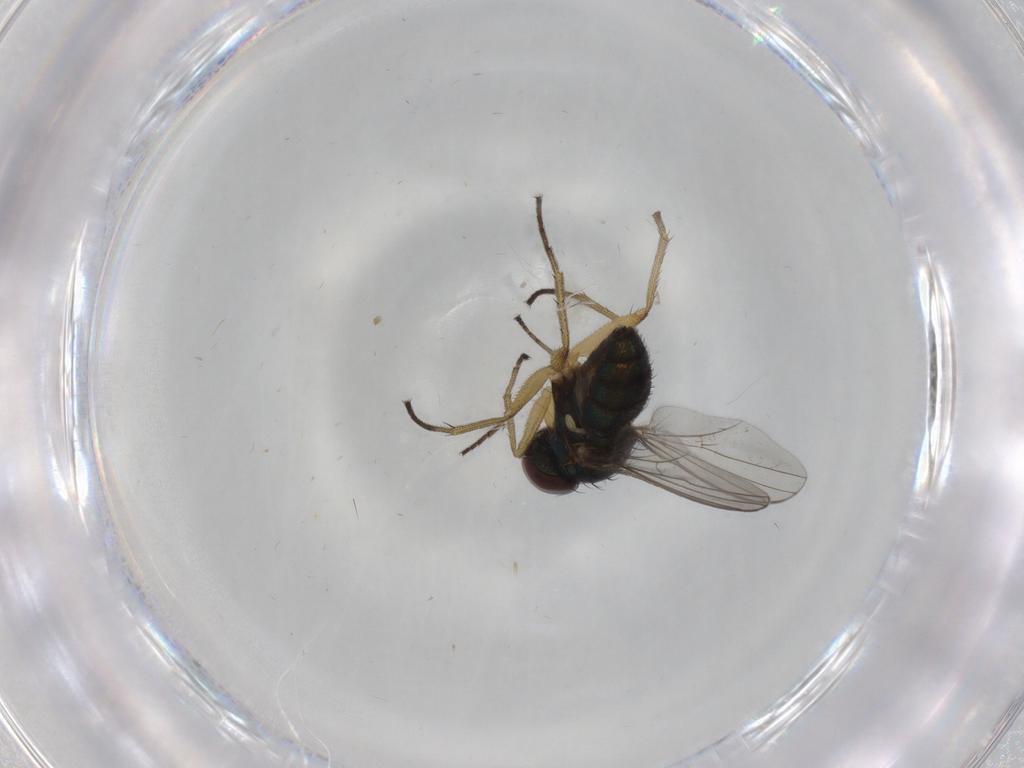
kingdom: Animalia
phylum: Arthropoda
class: Insecta
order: Diptera
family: Dolichopodidae
